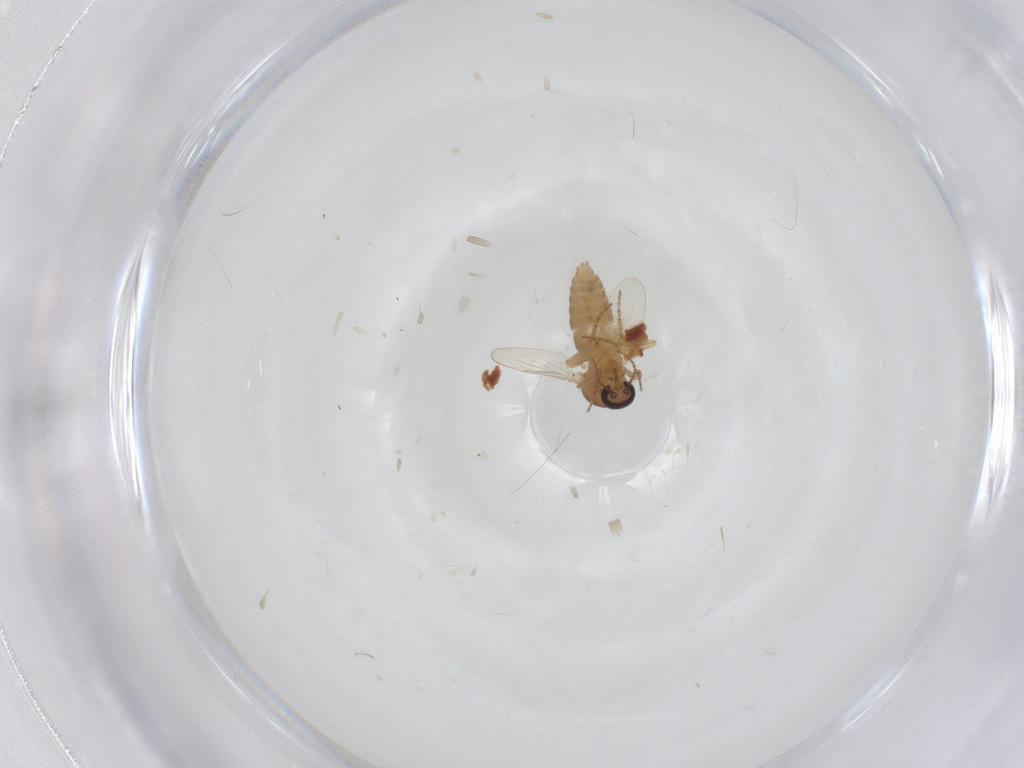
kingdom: Animalia
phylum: Arthropoda
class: Insecta
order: Diptera
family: Ceratopogonidae
